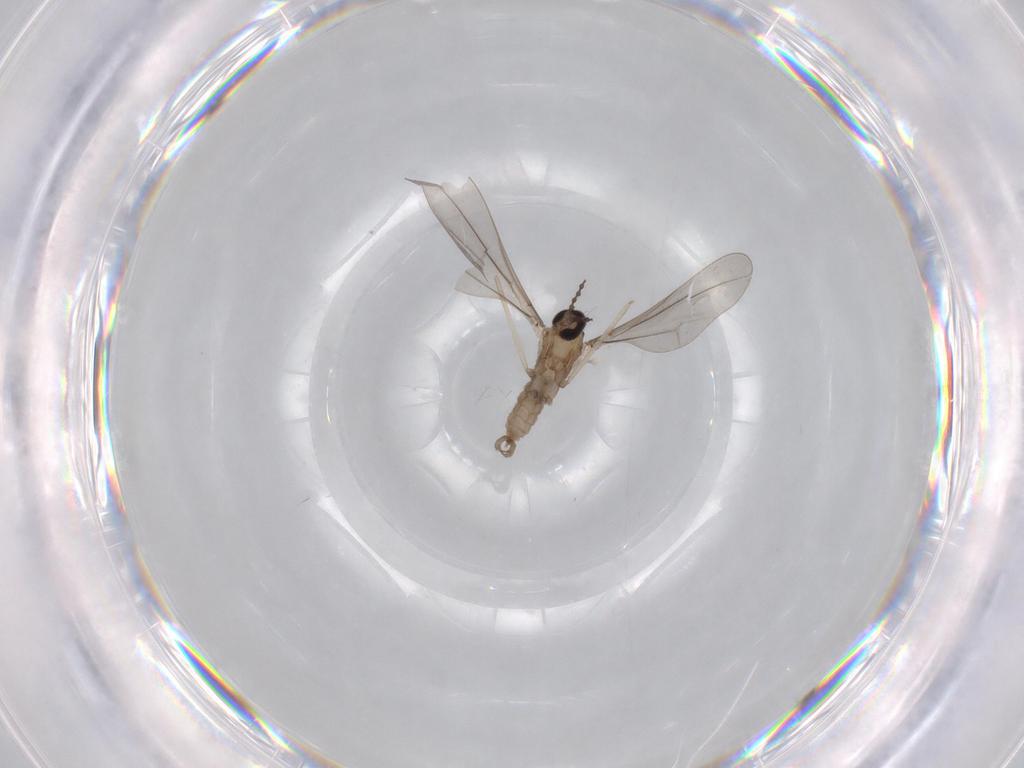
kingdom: Animalia
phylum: Arthropoda
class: Insecta
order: Diptera
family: Cecidomyiidae
